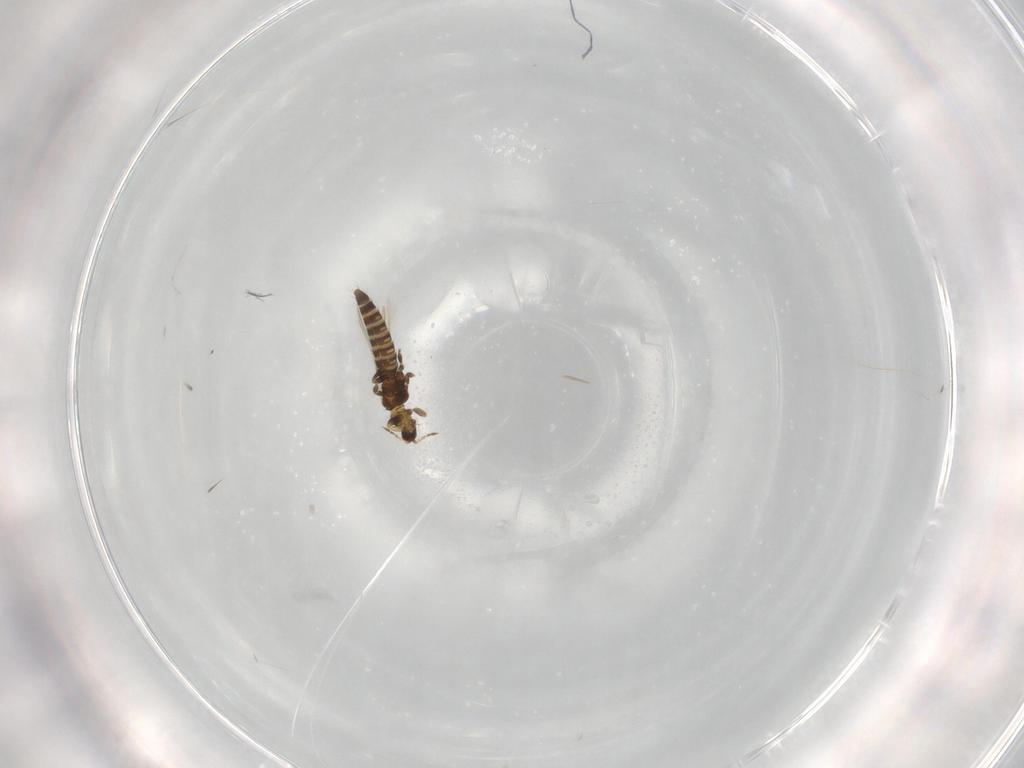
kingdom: Animalia
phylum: Arthropoda
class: Insecta
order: Thysanoptera
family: Thripidae
